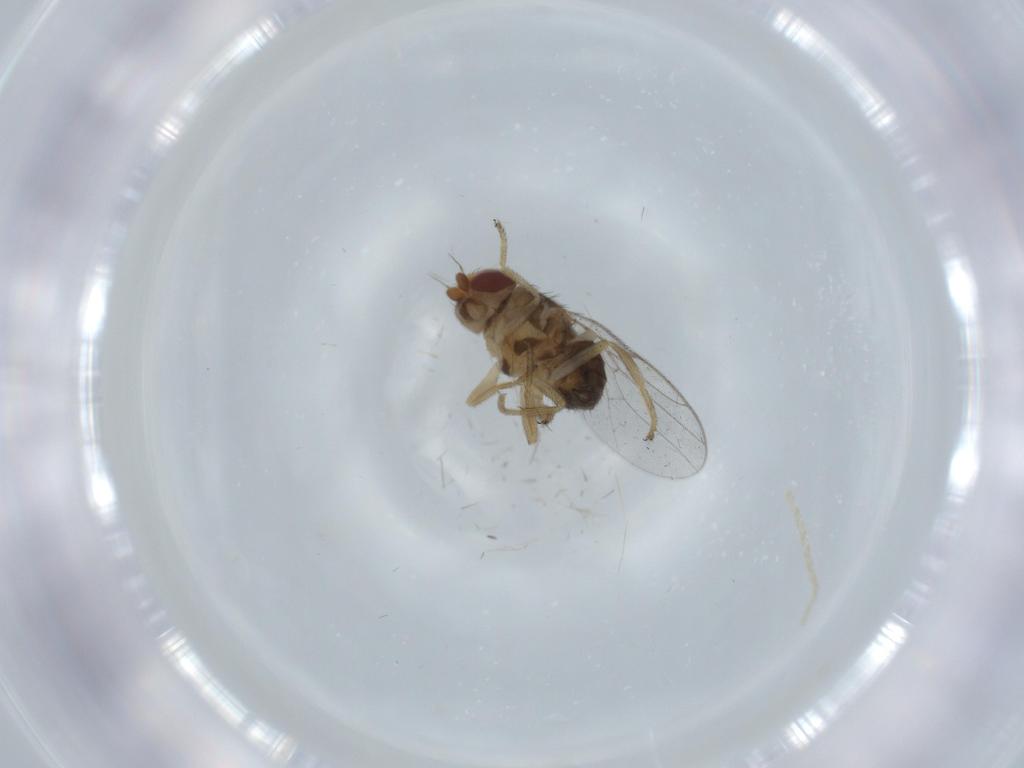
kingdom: Animalia
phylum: Arthropoda
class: Insecta
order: Diptera
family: Chloropidae
